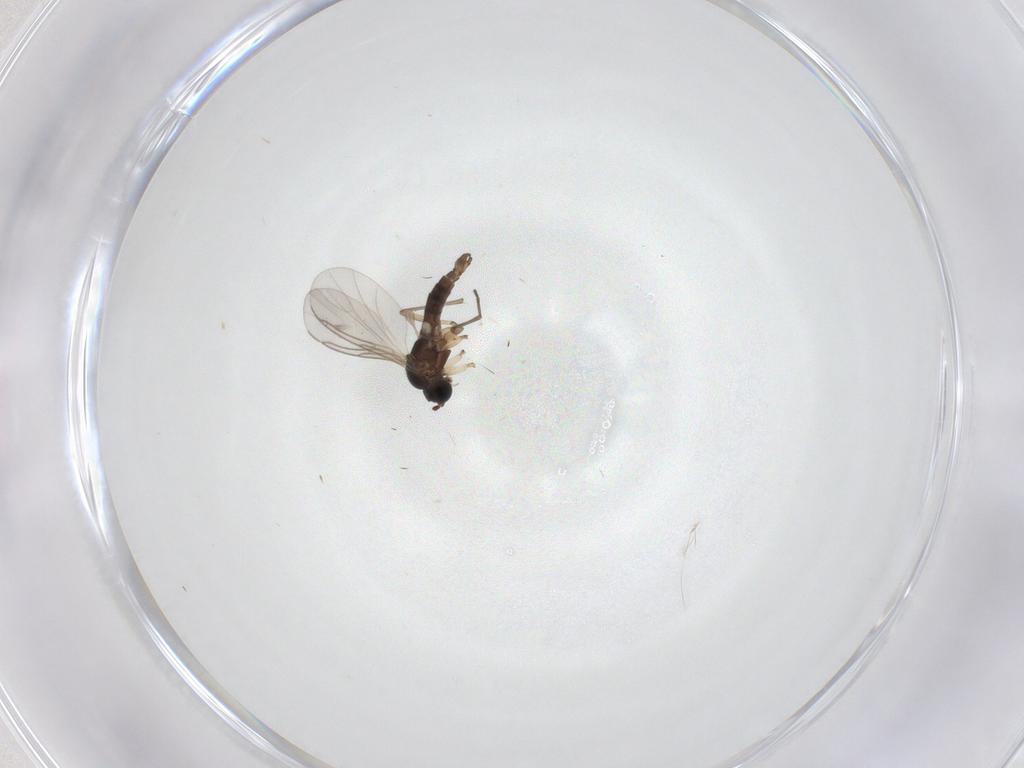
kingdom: Animalia
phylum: Arthropoda
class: Insecta
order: Diptera
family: Sciaridae
